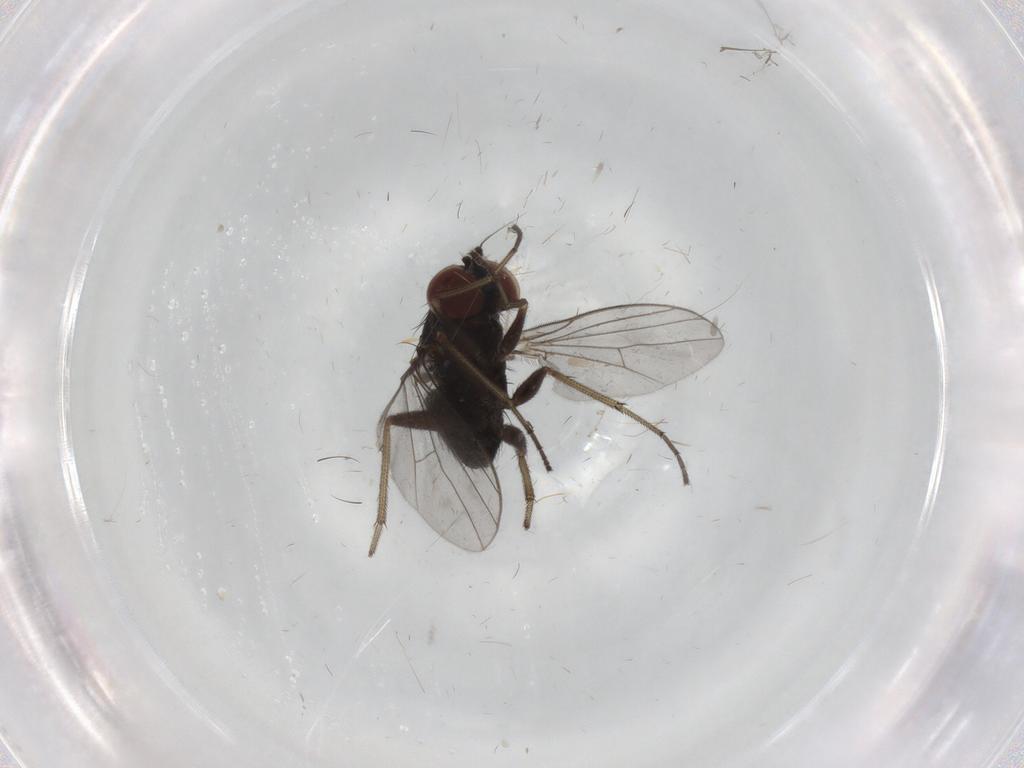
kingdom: Animalia
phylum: Arthropoda
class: Insecta
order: Diptera
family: Dolichopodidae
